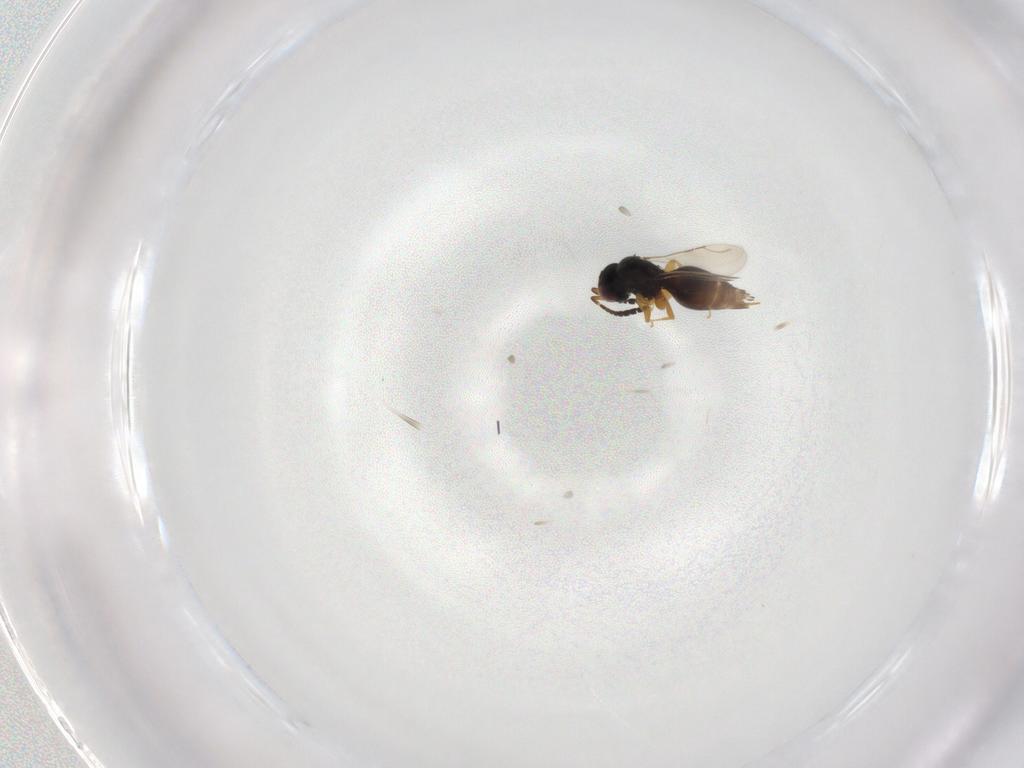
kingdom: Animalia
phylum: Arthropoda
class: Insecta
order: Hymenoptera
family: Ceraphronidae
